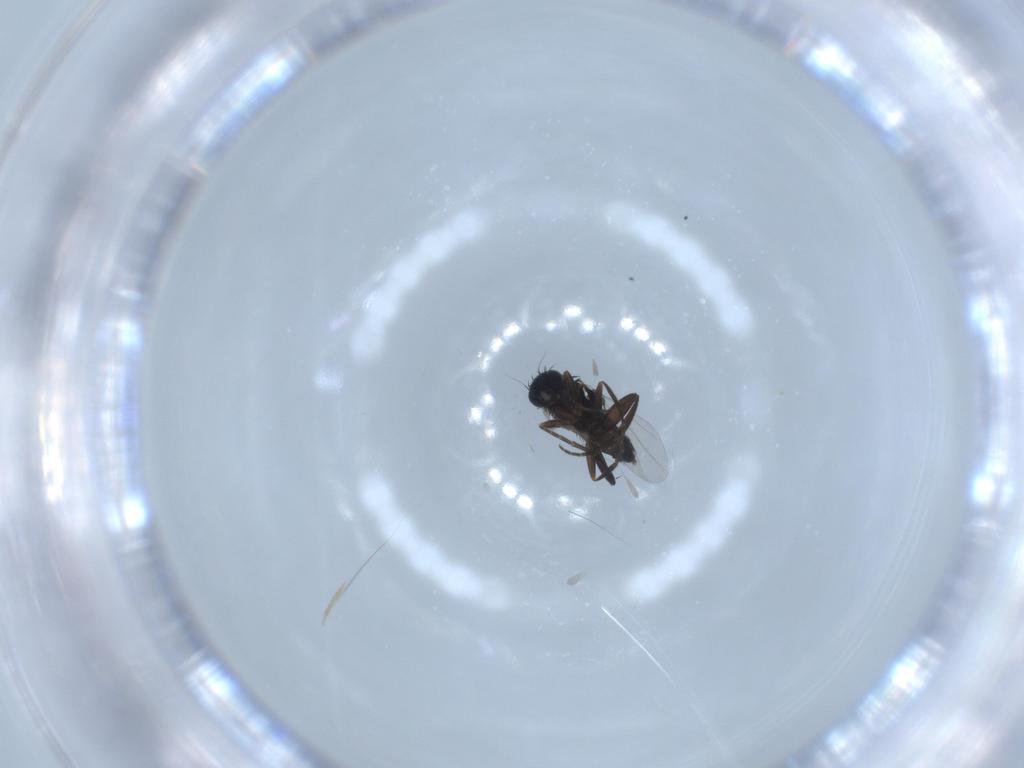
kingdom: Animalia
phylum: Arthropoda
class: Insecta
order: Diptera
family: Phoridae
